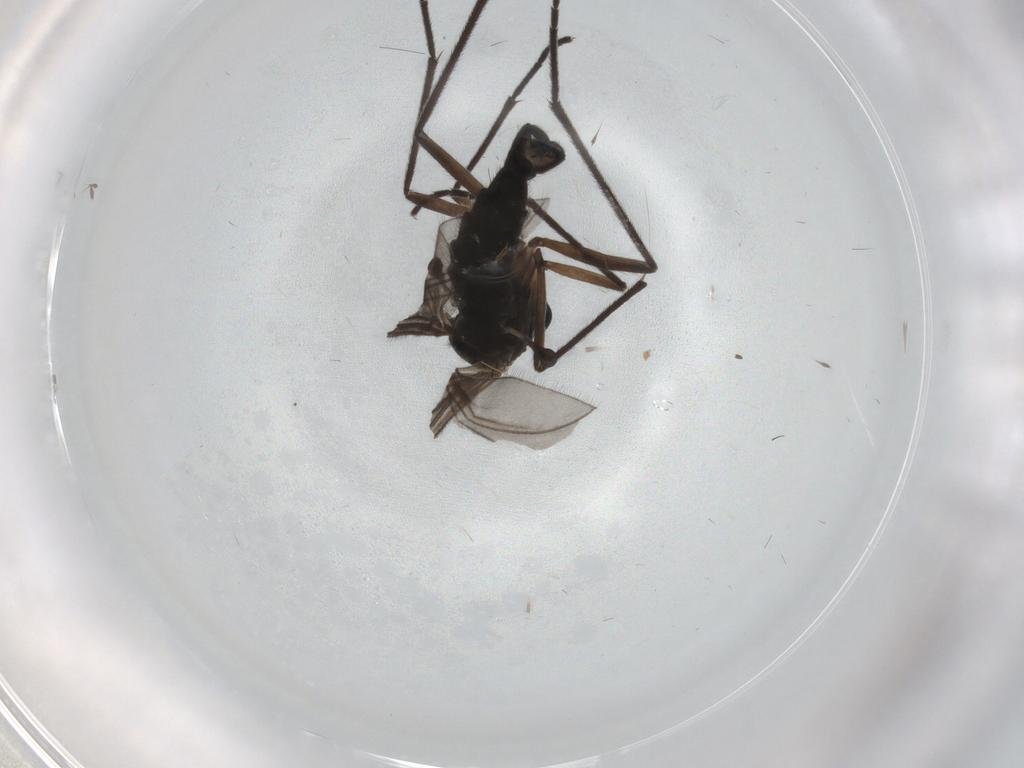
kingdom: Animalia
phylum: Arthropoda
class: Insecta
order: Diptera
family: Sciaridae
